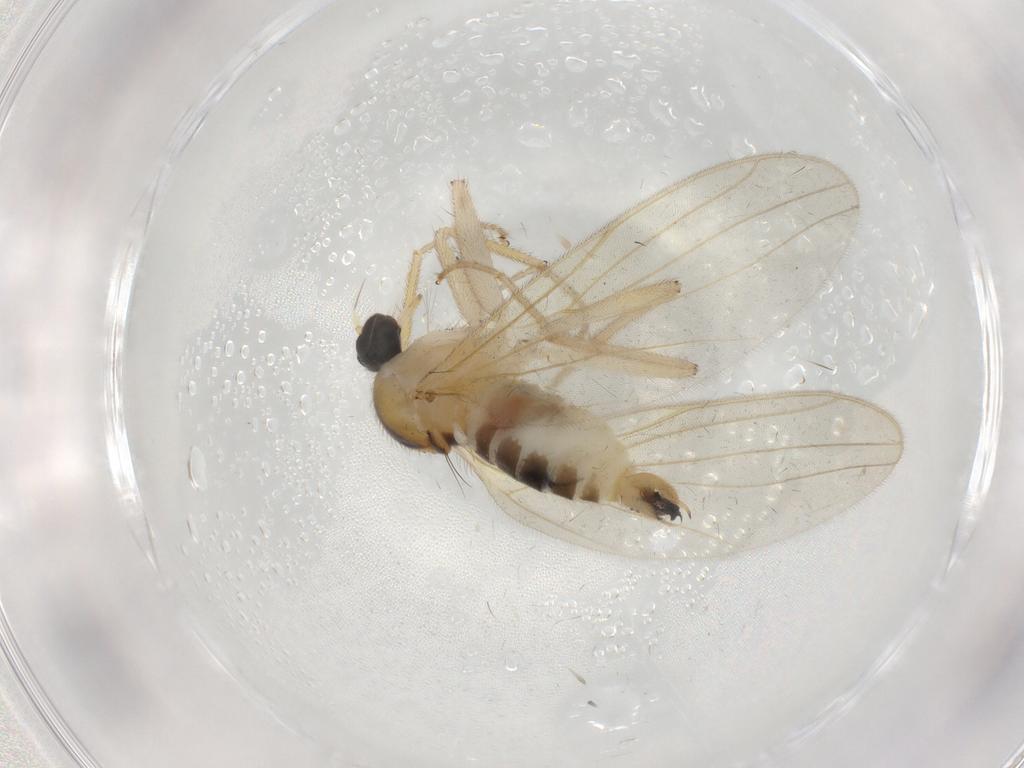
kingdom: Animalia
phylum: Arthropoda
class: Insecta
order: Diptera
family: Hybotidae
